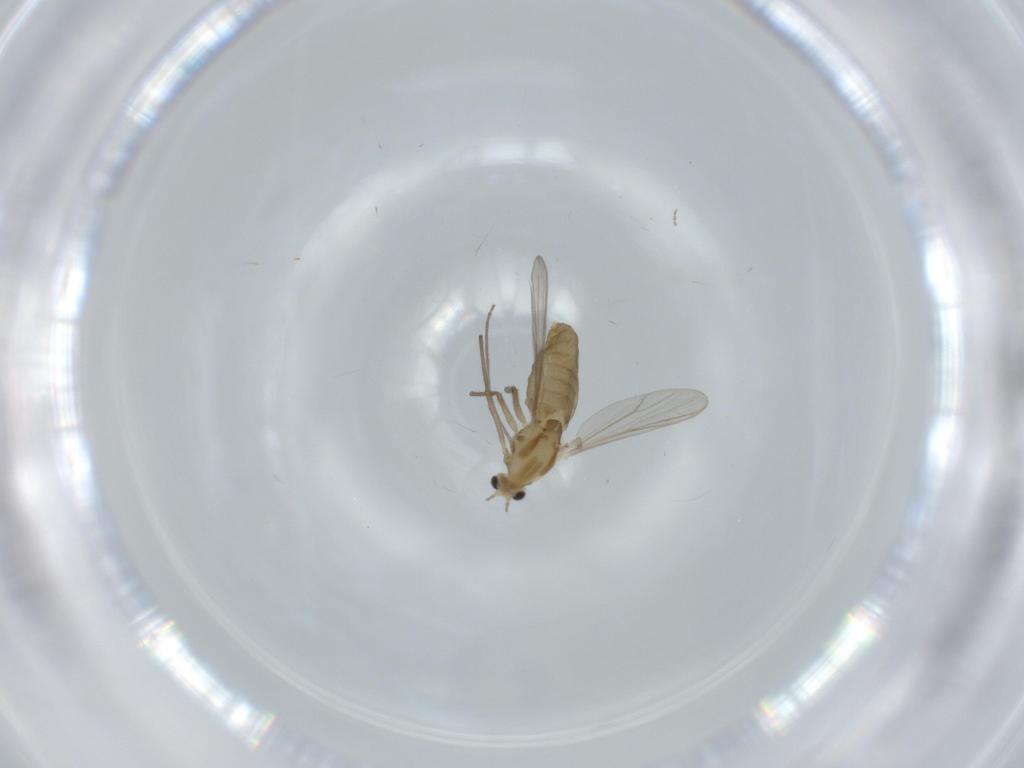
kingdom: Animalia
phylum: Arthropoda
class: Insecta
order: Diptera
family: Chironomidae
